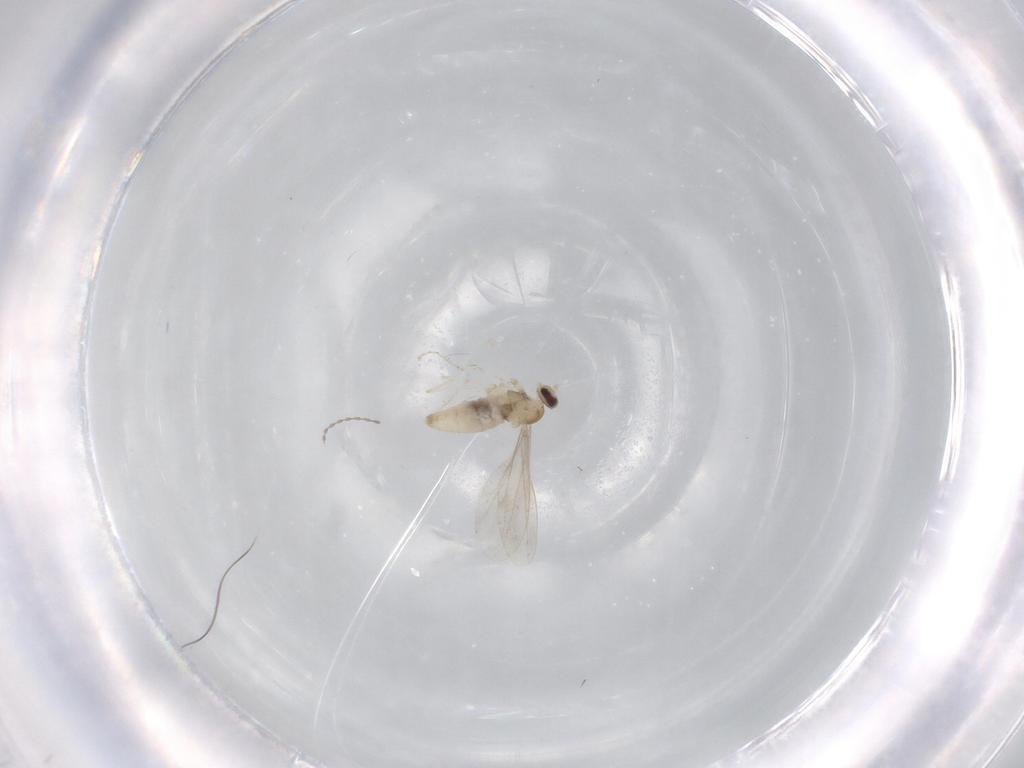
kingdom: Animalia
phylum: Arthropoda
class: Insecta
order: Diptera
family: Cecidomyiidae
